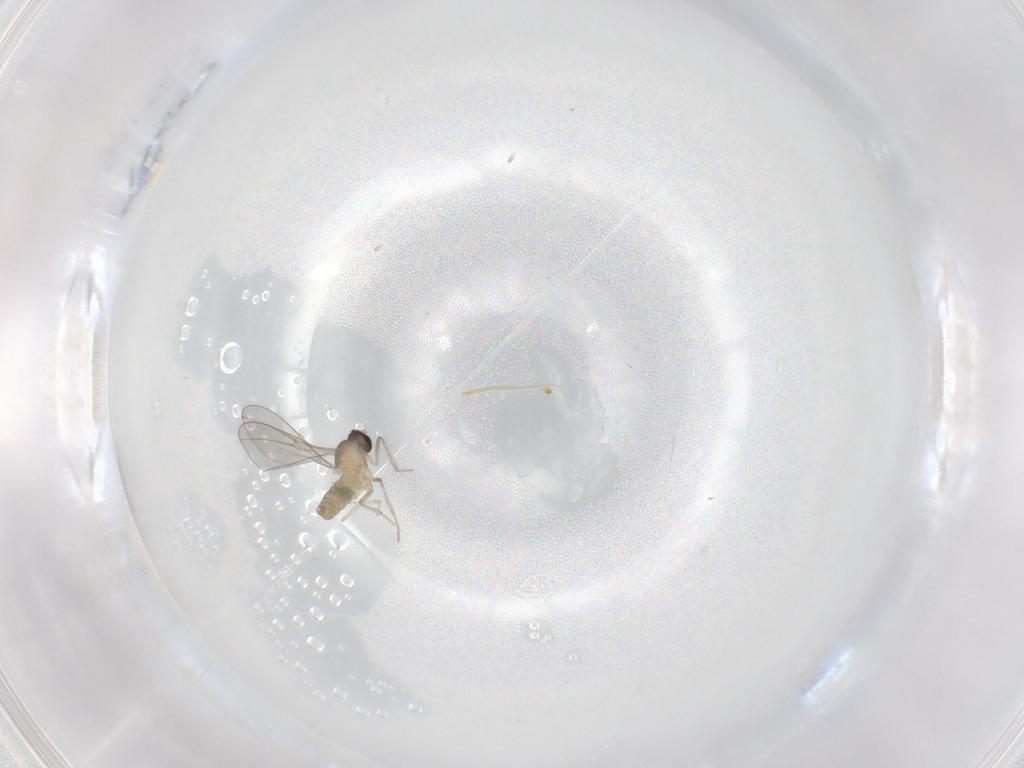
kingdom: Animalia
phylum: Arthropoda
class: Insecta
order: Diptera
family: Cecidomyiidae
